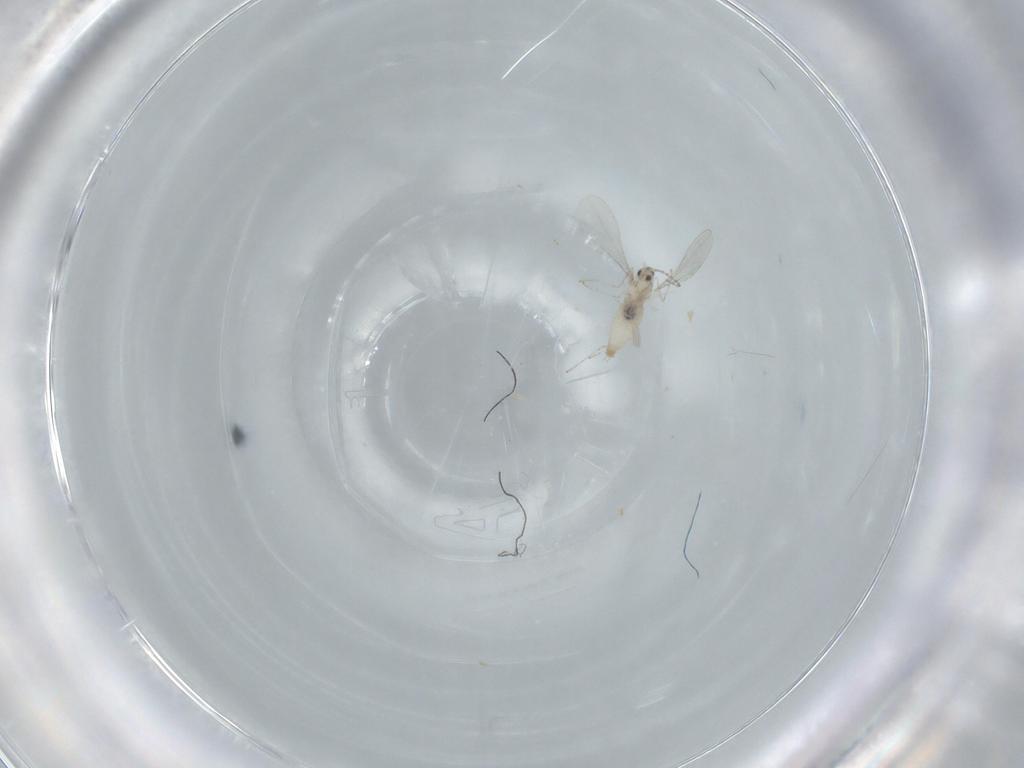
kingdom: Animalia
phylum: Arthropoda
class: Insecta
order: Diptera
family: Cecidomyiidae
